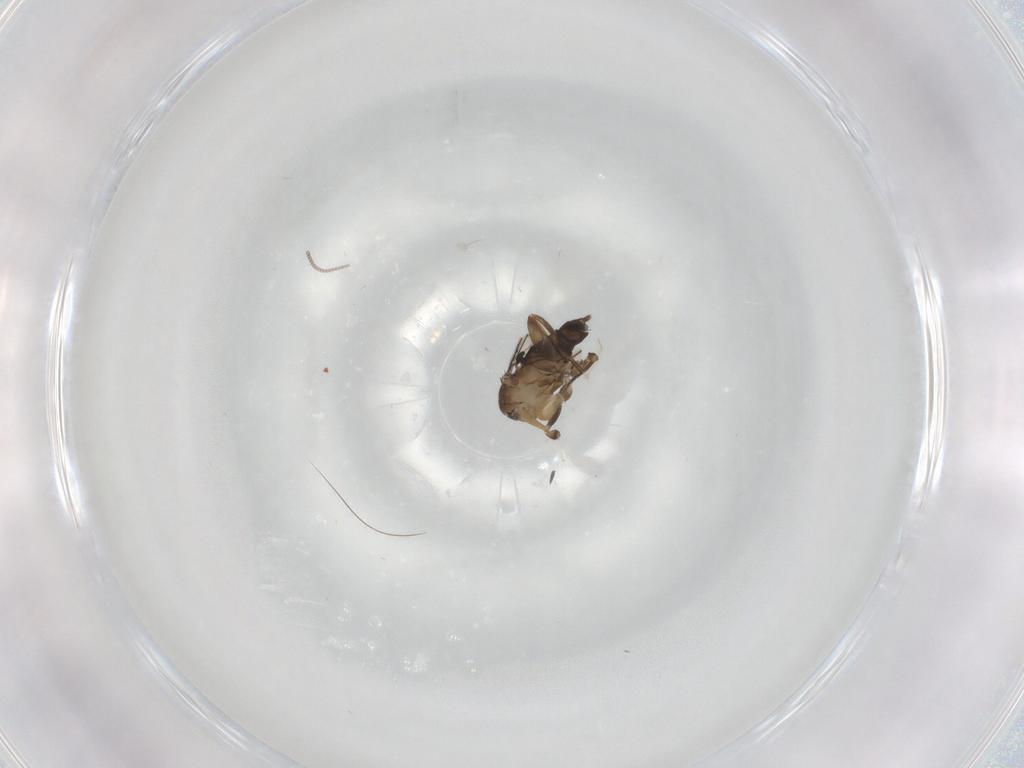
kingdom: Animalia
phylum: Arthropoda
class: Insecta
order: Diptera
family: Phoridae
